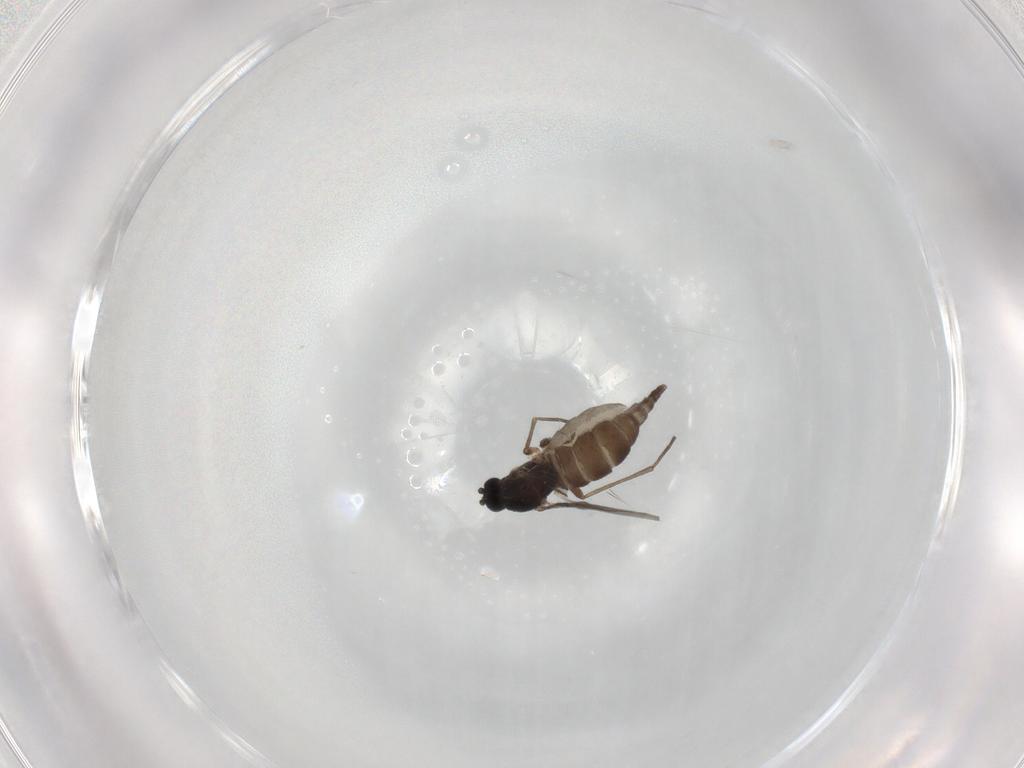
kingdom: Animalia
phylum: Arthropoda
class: Insecta
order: Diptera
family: Sciaridae
